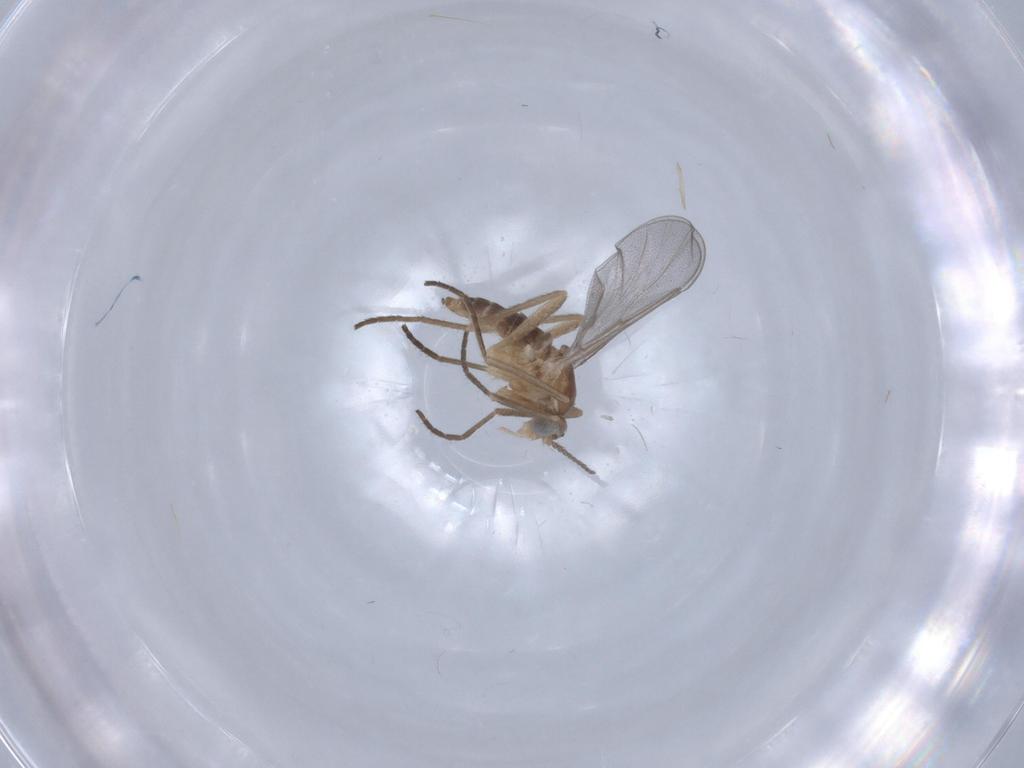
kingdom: Animalia
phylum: Arthropoda
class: Insecta
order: Diptera
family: Cecidomyiidae
